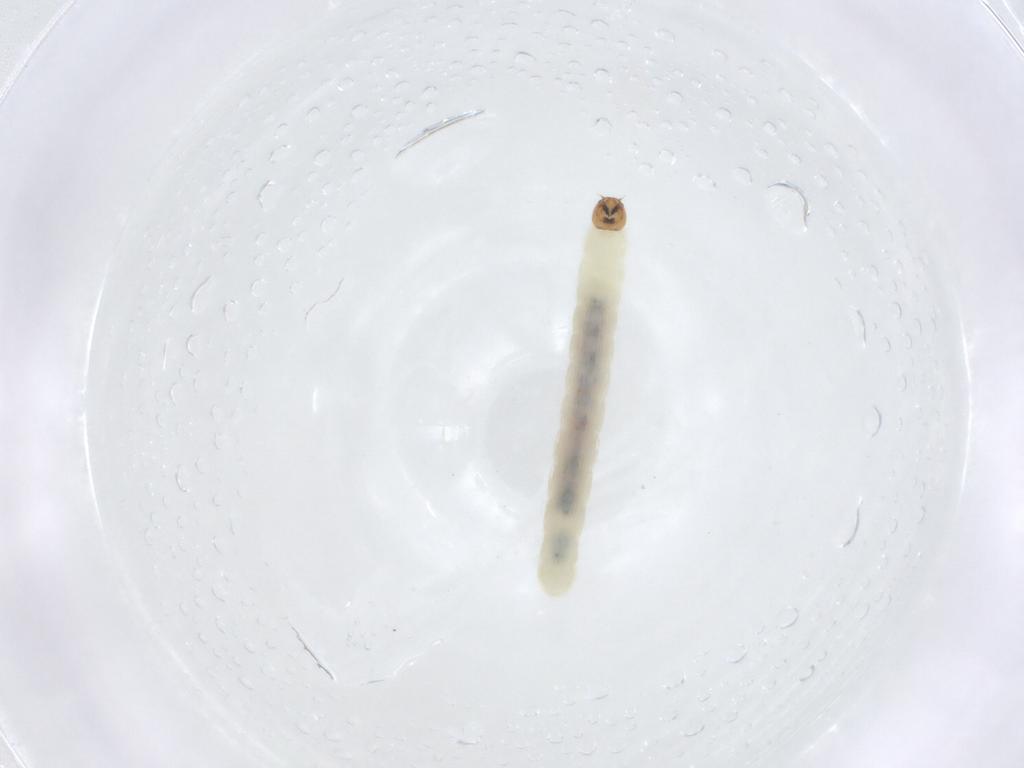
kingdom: Animalia
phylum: Arthropoda
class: Insecta
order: Diptera
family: Chironomidae
